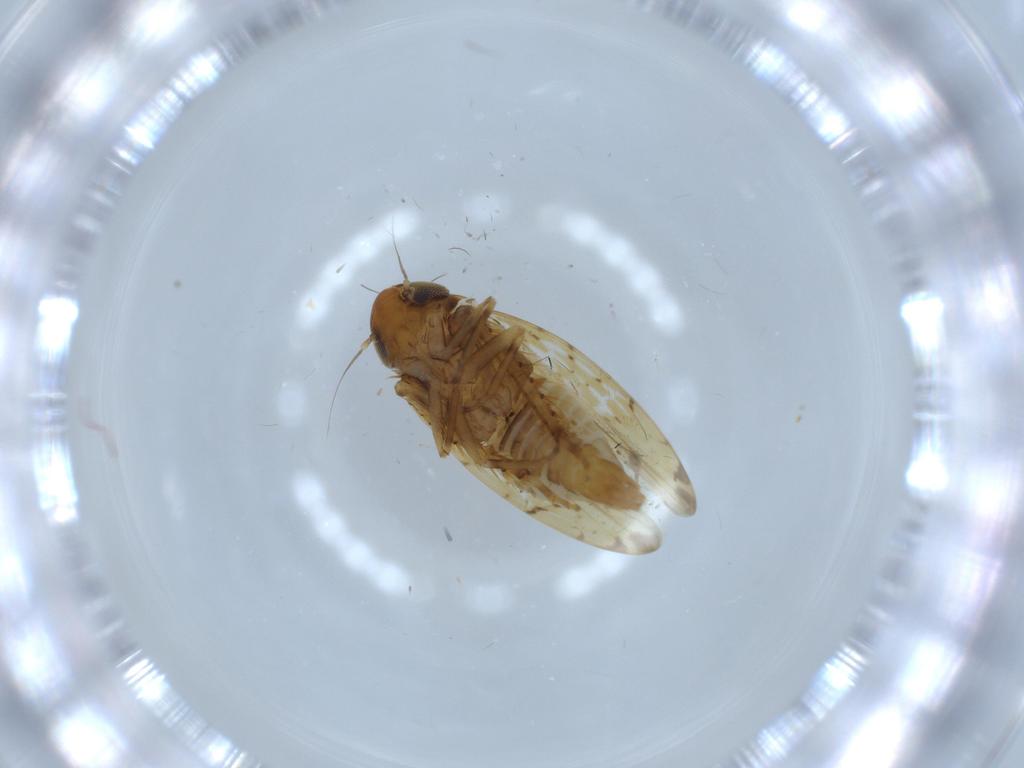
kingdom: Animalia
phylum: Arthropoda
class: Insecta
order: Hemiptera
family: Cicadellidae
